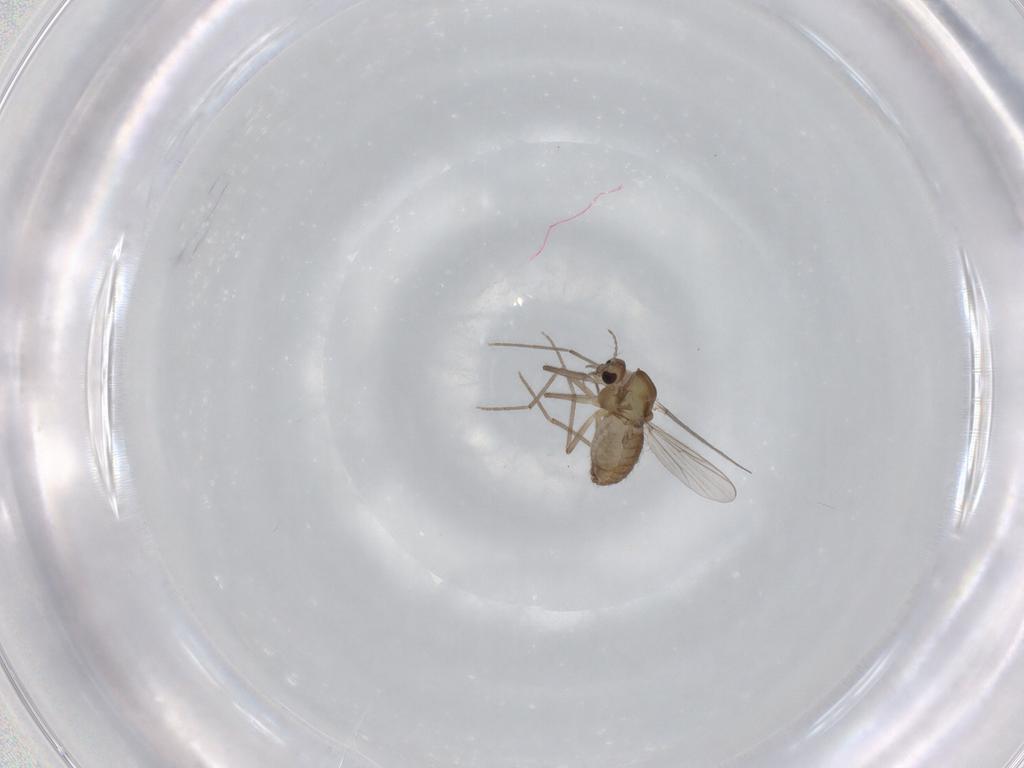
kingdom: Animalia
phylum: Arthropoda
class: Insecta
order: Diptera
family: Chironomidae
